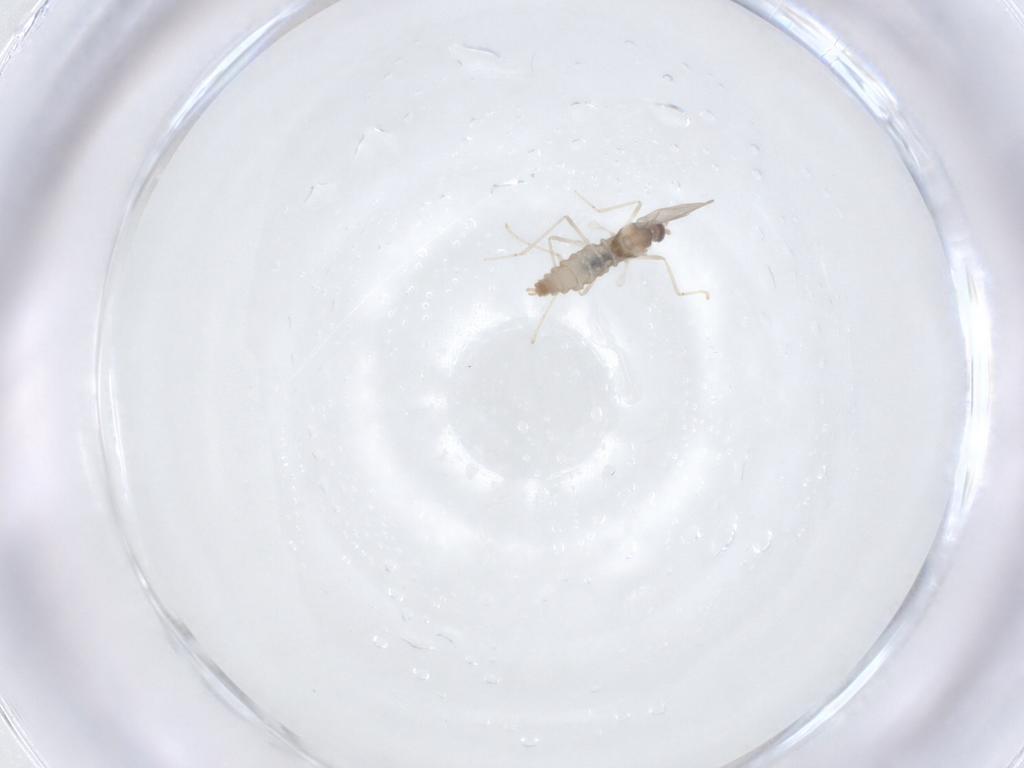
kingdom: Animalia
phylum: Arthropoda
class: Insecta
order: Diptera
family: Cecidomyiidae
